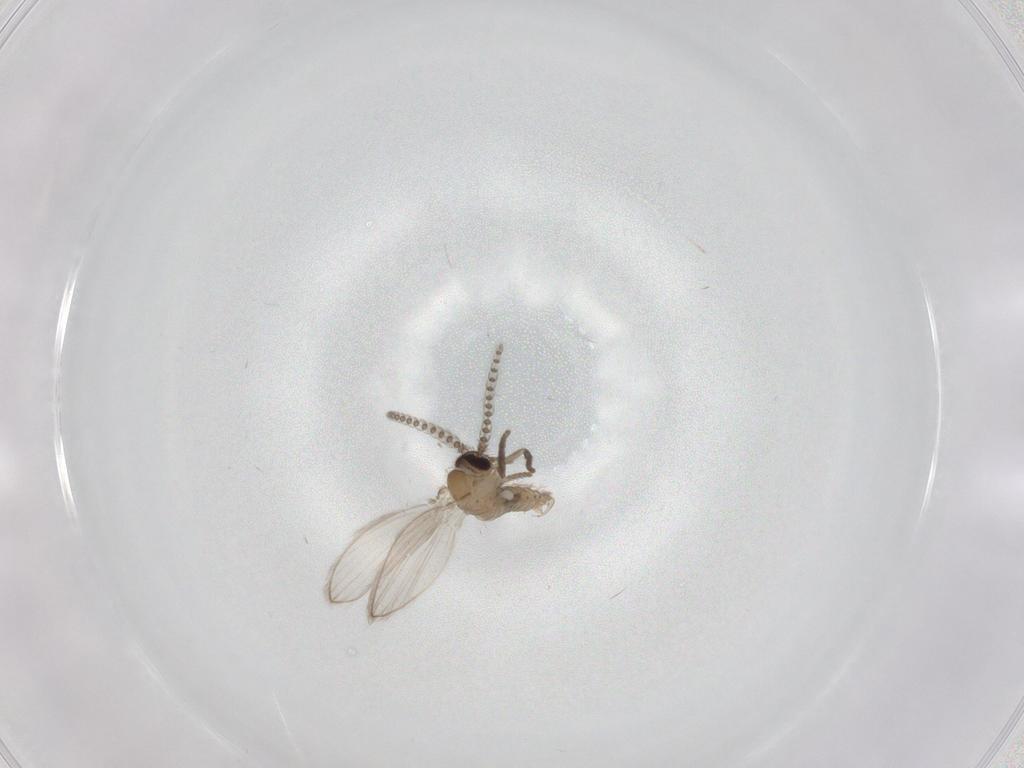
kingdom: Animalia
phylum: Arthropoda
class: Insecta
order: Diptera
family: Psychodidae
